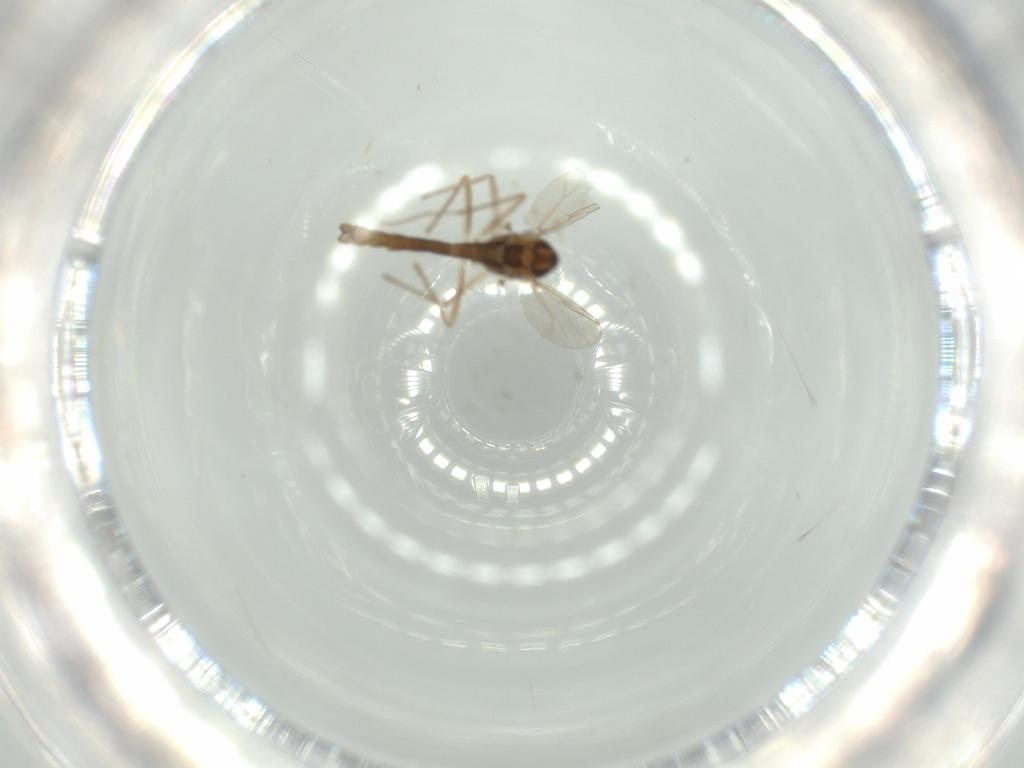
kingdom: Animalia
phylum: Arthropoda
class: Insecta
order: Diptera
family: Chironomidae
